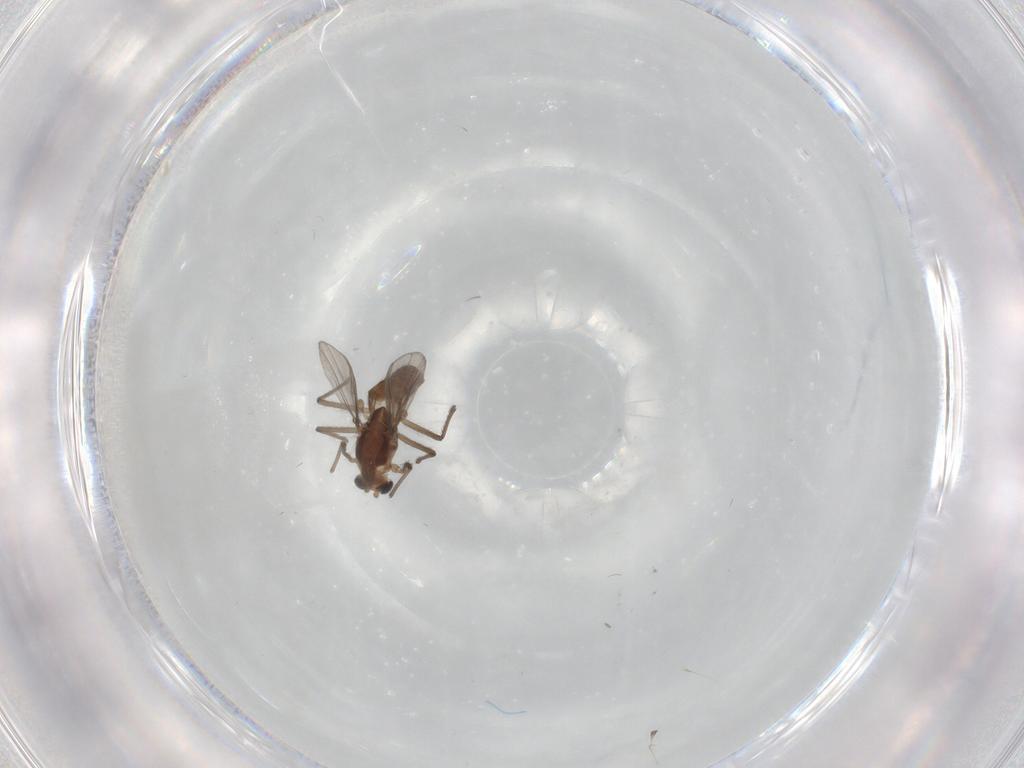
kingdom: Animalia
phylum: Arthropoda
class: Insecta
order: Diptera
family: Chironomidae
